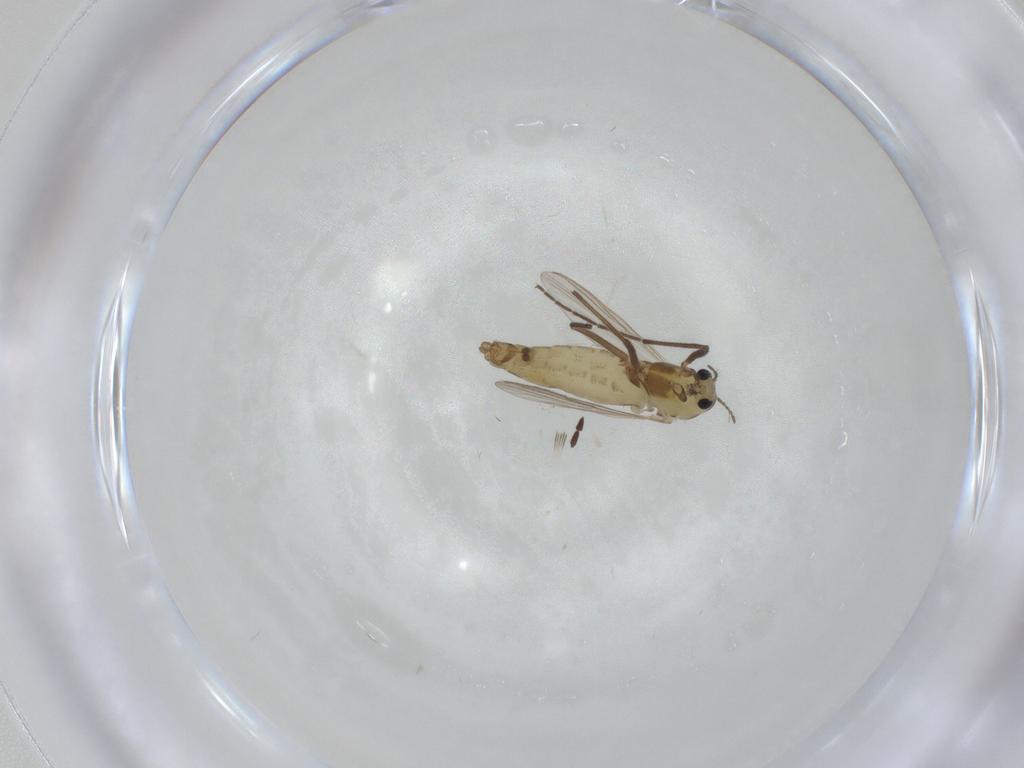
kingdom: Animalia
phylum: Arthropoda
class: Insecta
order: Diptera
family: Chironomidae
